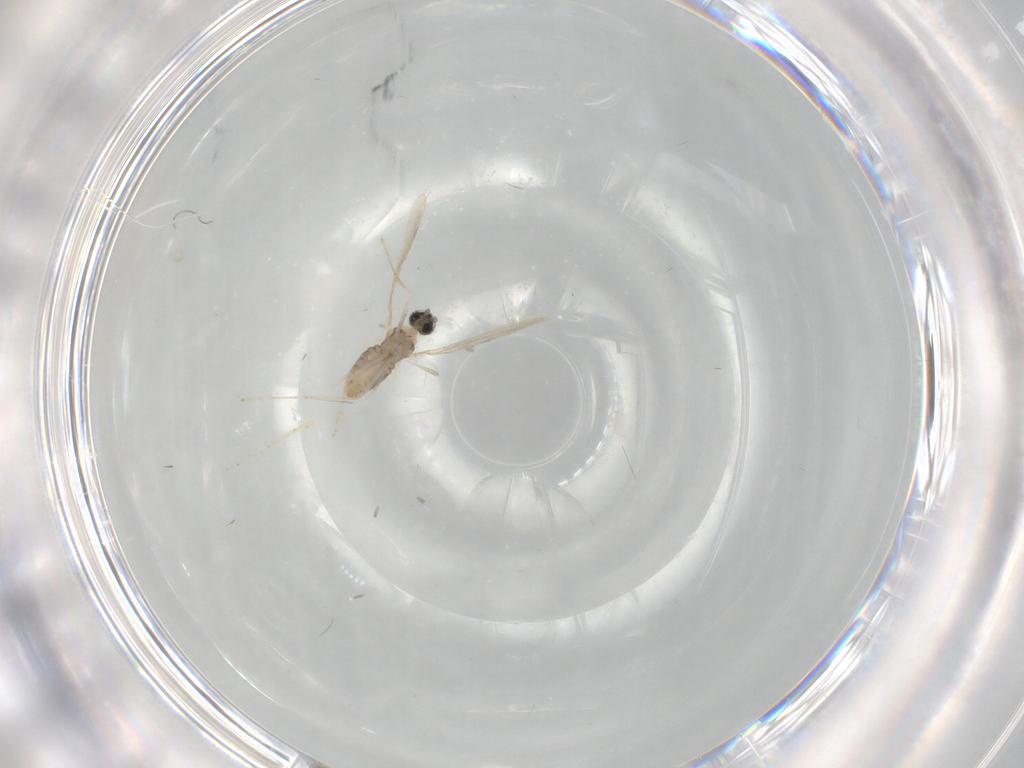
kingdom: Animalia
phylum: Arthropoda
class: Insecta
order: Diptera
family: Cecidomyiidae
